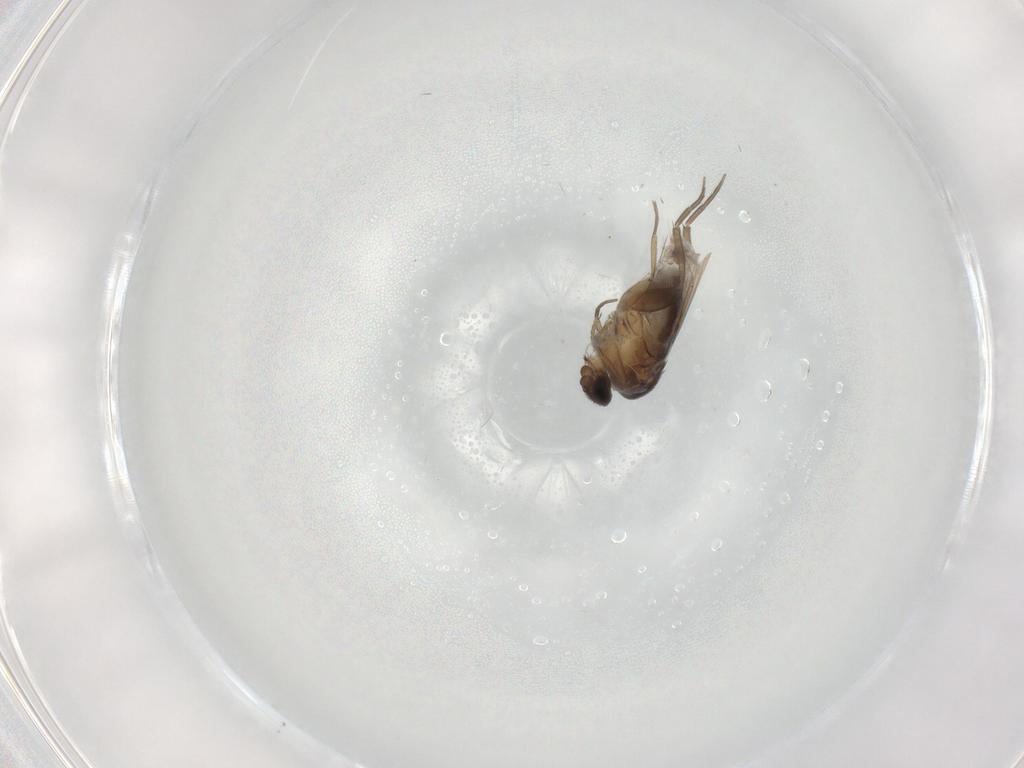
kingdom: Animalia
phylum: Arthropoda
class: Insecta
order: Diptera
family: Phoridae
